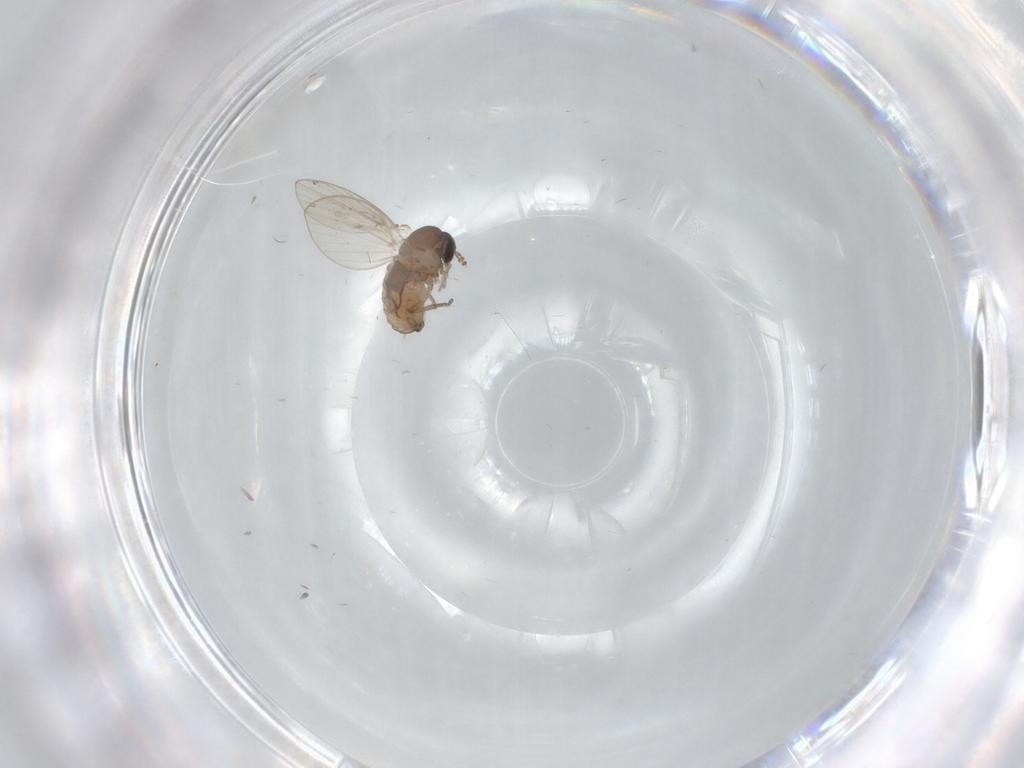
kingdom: Animalia
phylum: Arthropoda
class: Insecta
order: Diptera
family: Psychodidae
